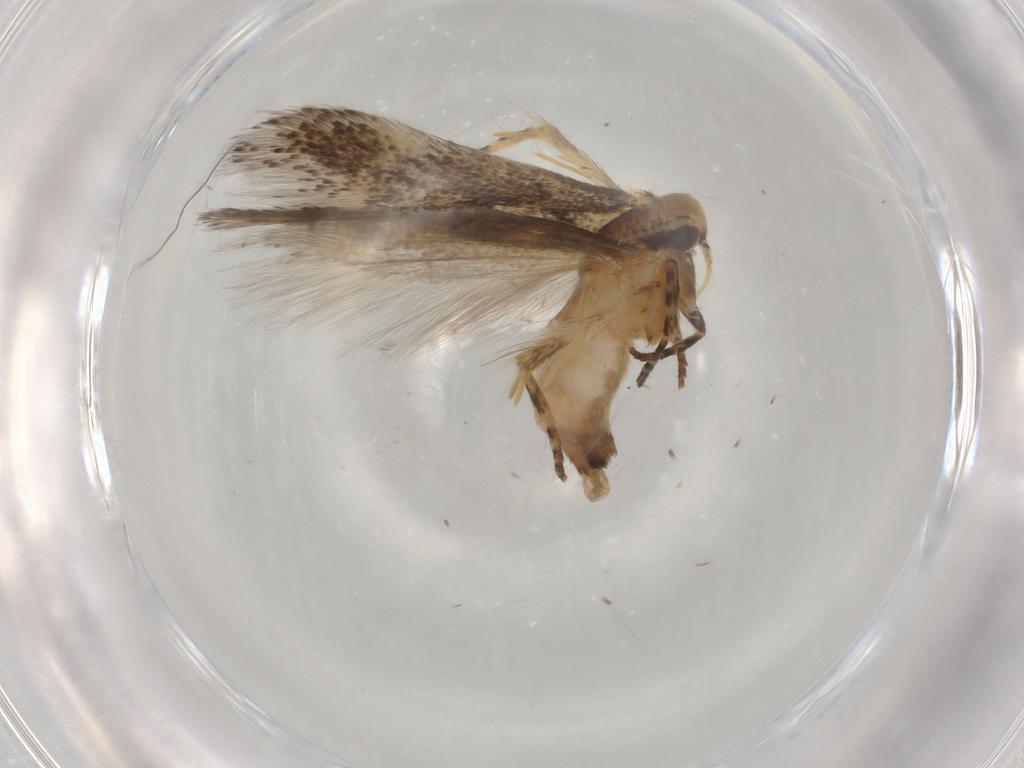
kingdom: Animalia
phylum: Arthropoda
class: Insecta
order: Lepidoptera
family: Gelechiidae
